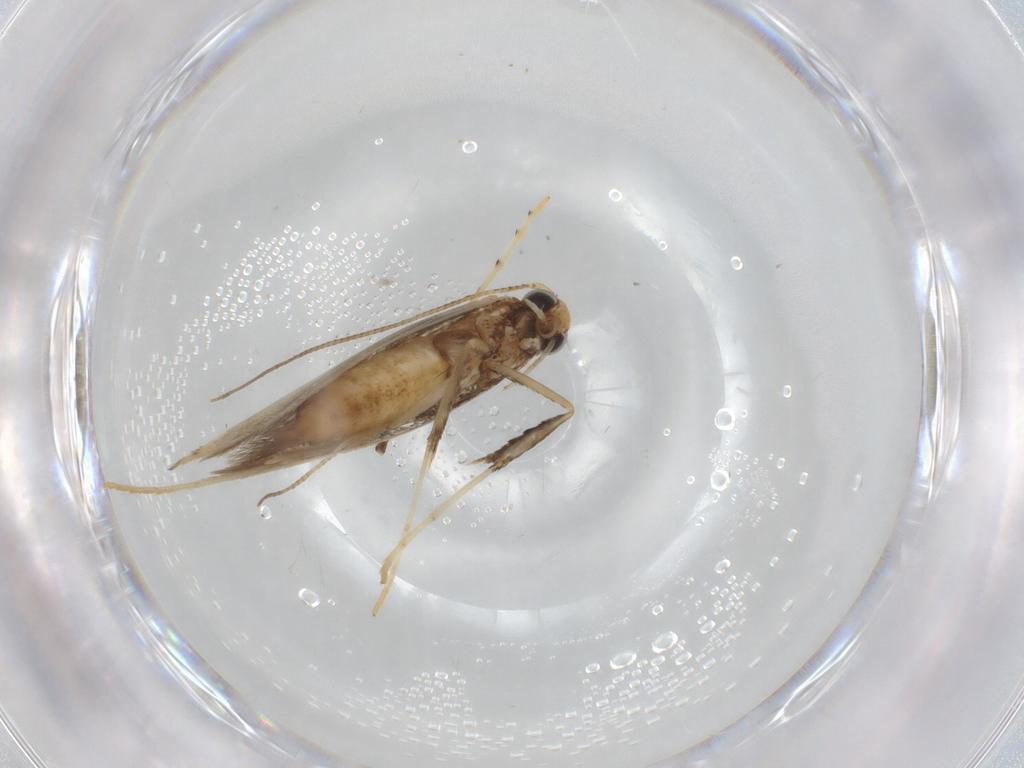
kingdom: Animalia
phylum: Arthropoda
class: Insecta
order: Lepidoptera
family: Gracillariidae
